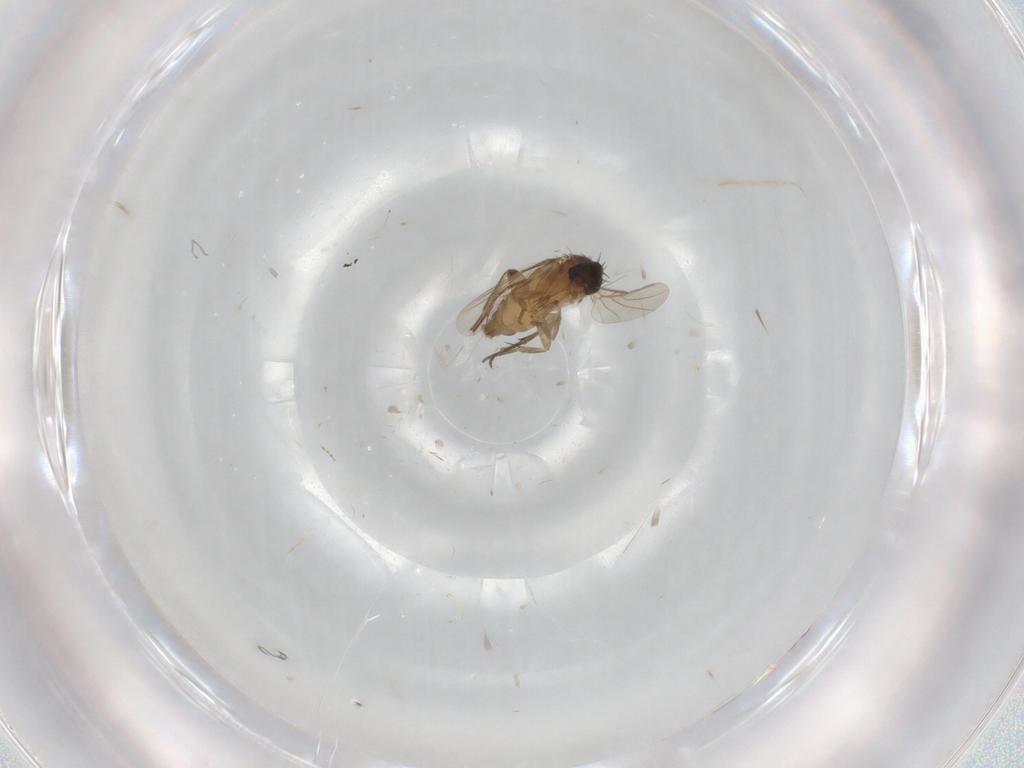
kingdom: Animalia
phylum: Arthropoda
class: Insecta
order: Diptera
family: Phoridae
